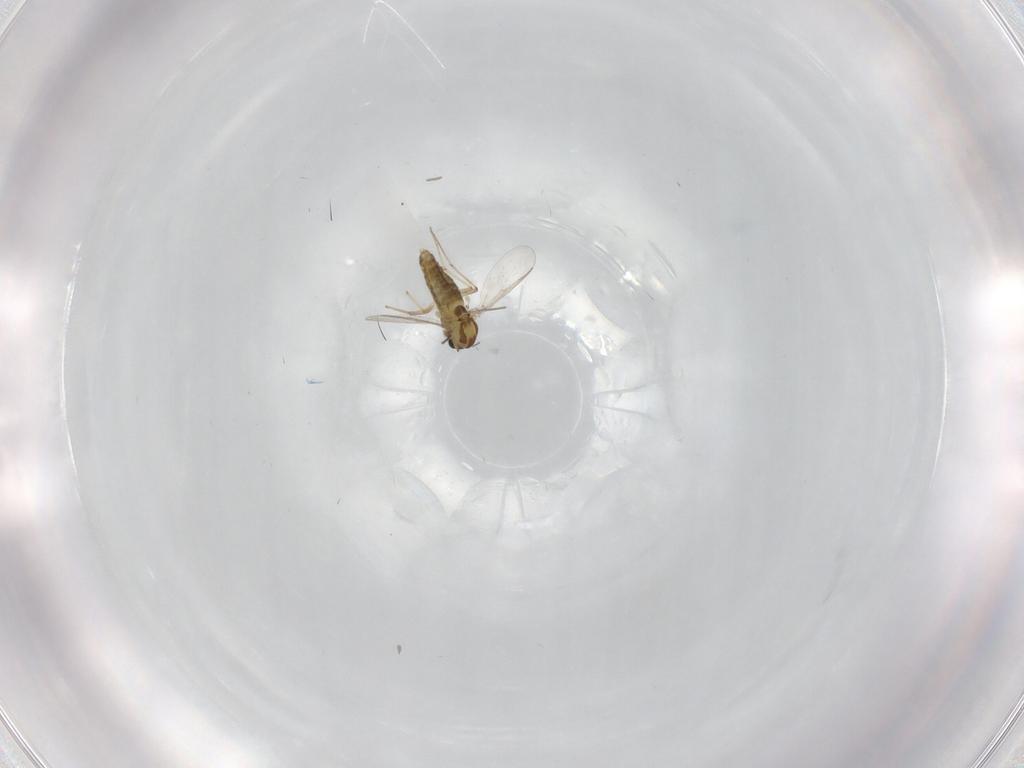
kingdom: Animalia
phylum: Arthropoda
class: Insecta
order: Diptera
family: Chironomidae
